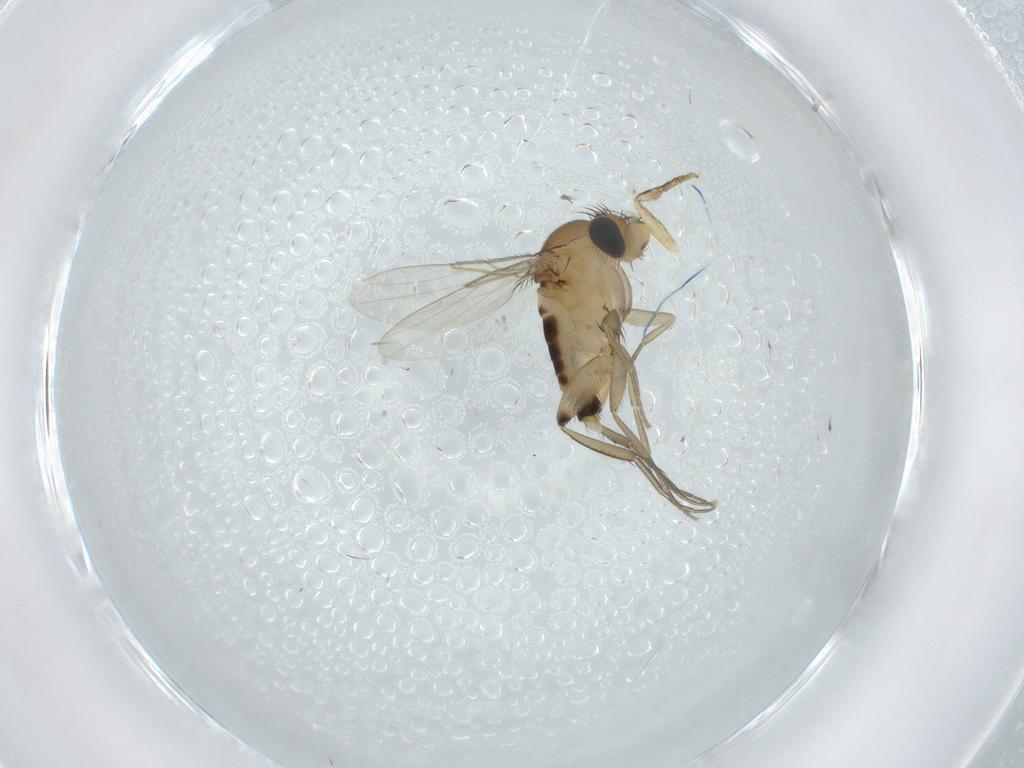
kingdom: Animalia
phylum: Arthropoda
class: Insecta
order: Diptera
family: Phoridae
